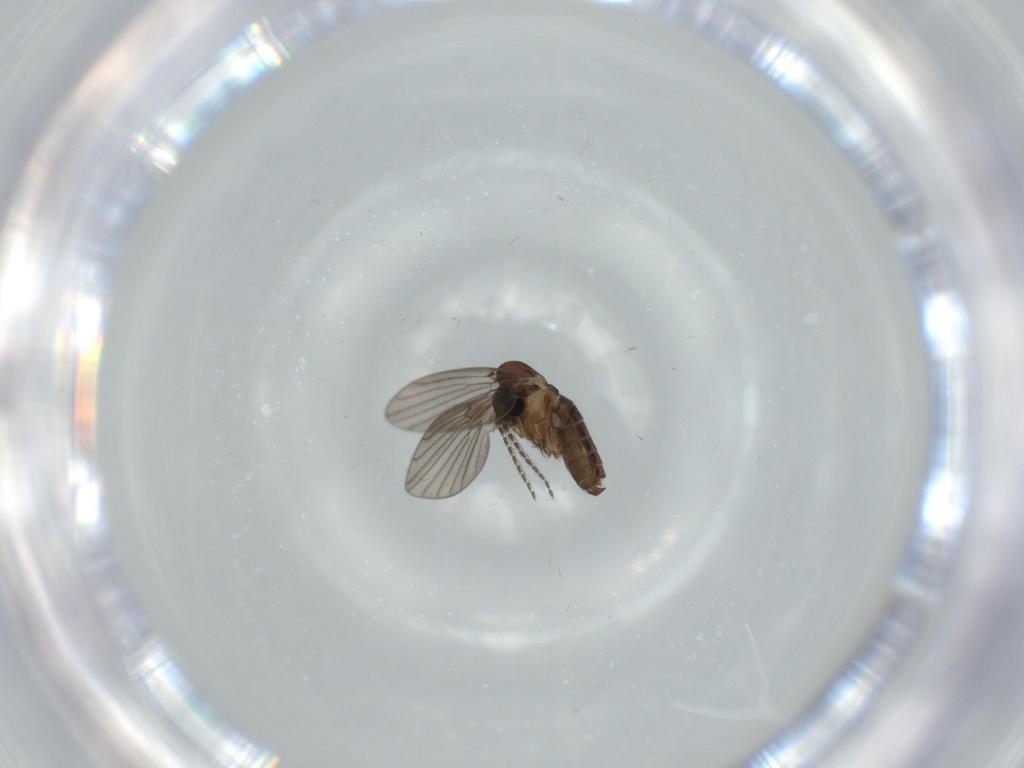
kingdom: Animalia
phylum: Arthropoda
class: Insecta
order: Diptera
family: Psychodidae
